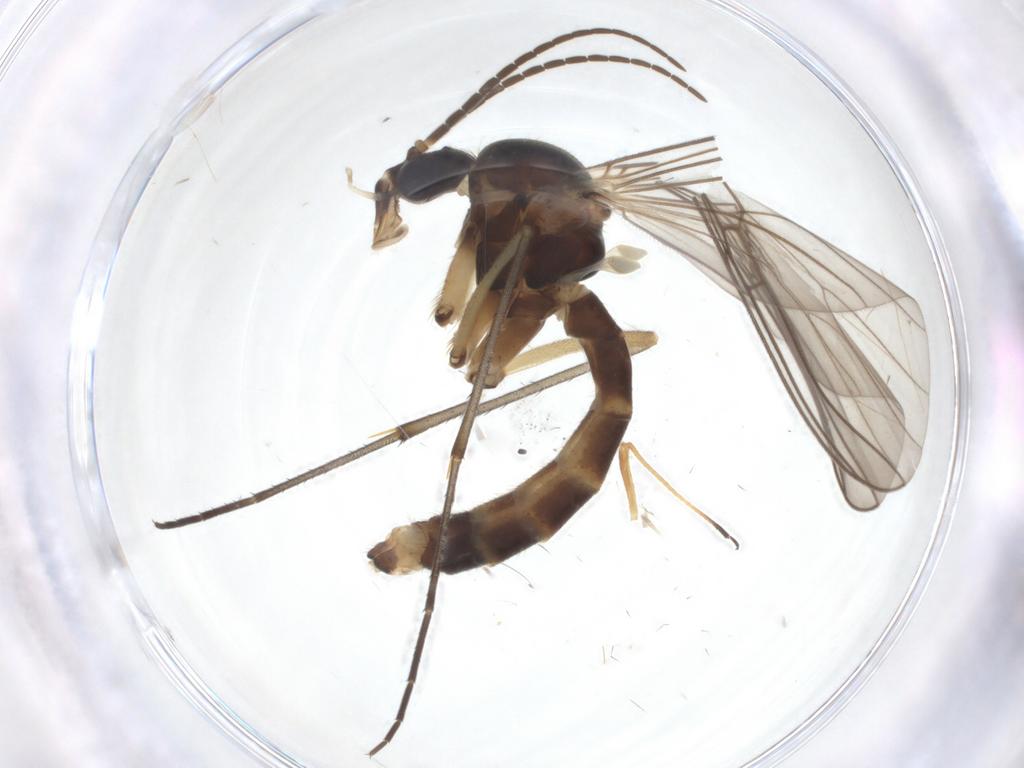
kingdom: Animalia
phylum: Arthropoda
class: Insecta
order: Diptera
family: Mycetophilidae
